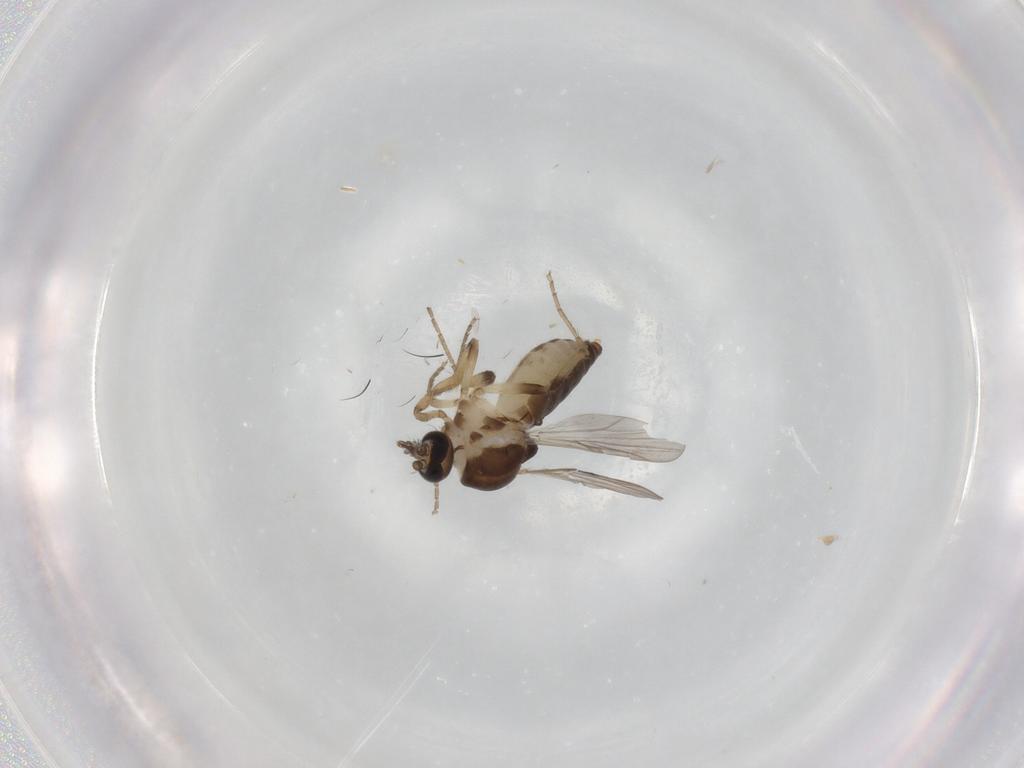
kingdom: Animalia
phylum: Arthropoda
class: Insecta
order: Diptera
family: Ceratopogonidae
